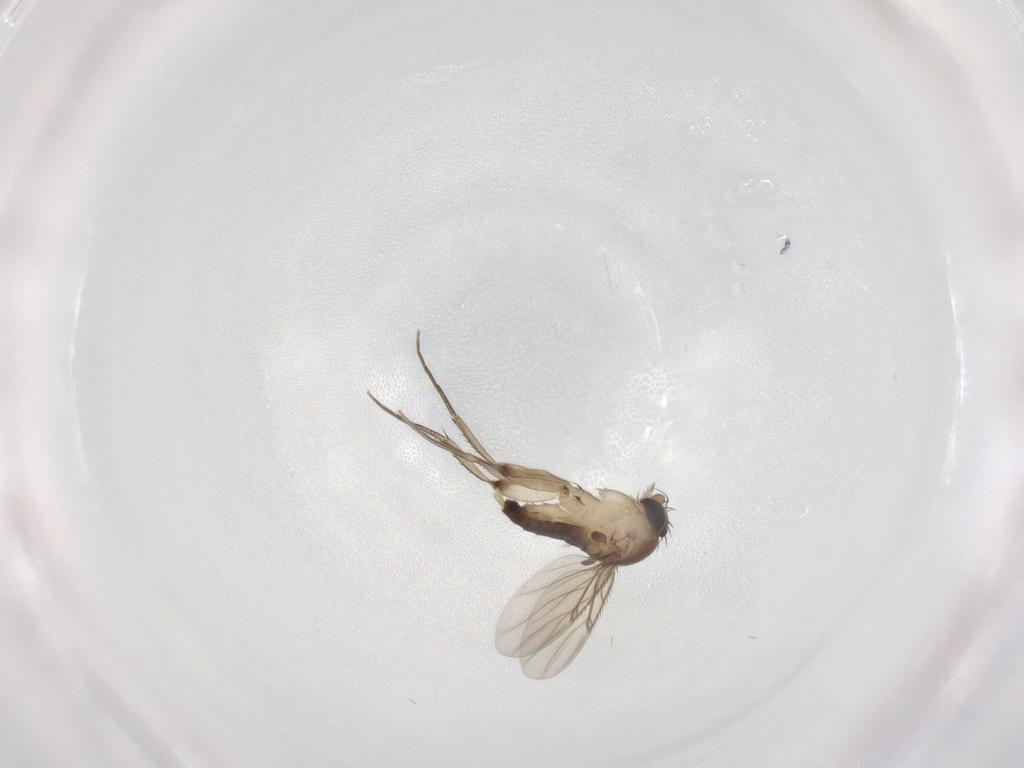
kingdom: Animalia
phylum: Arthropoda
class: Insecta
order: Diptera
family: Phoridae
